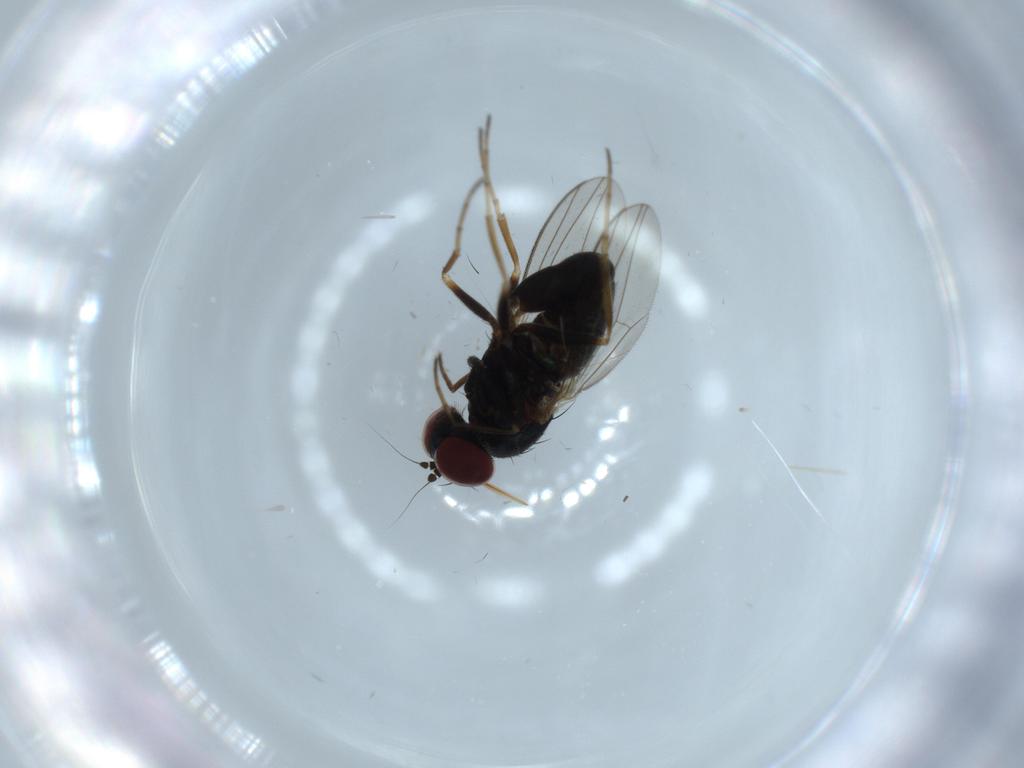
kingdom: Animalia
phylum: Arthropoda
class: Insecta
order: Diptera
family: Dolichopodidae
